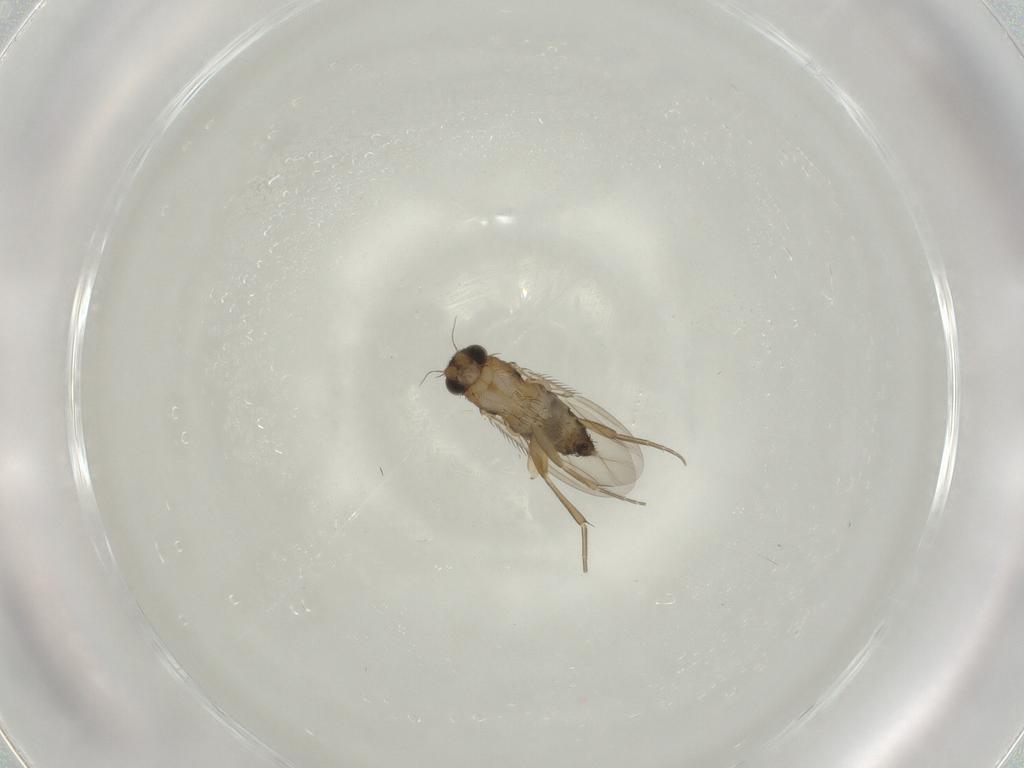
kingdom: Animalia
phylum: Arthropoda
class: Insecta
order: Diptera
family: Phoridae
